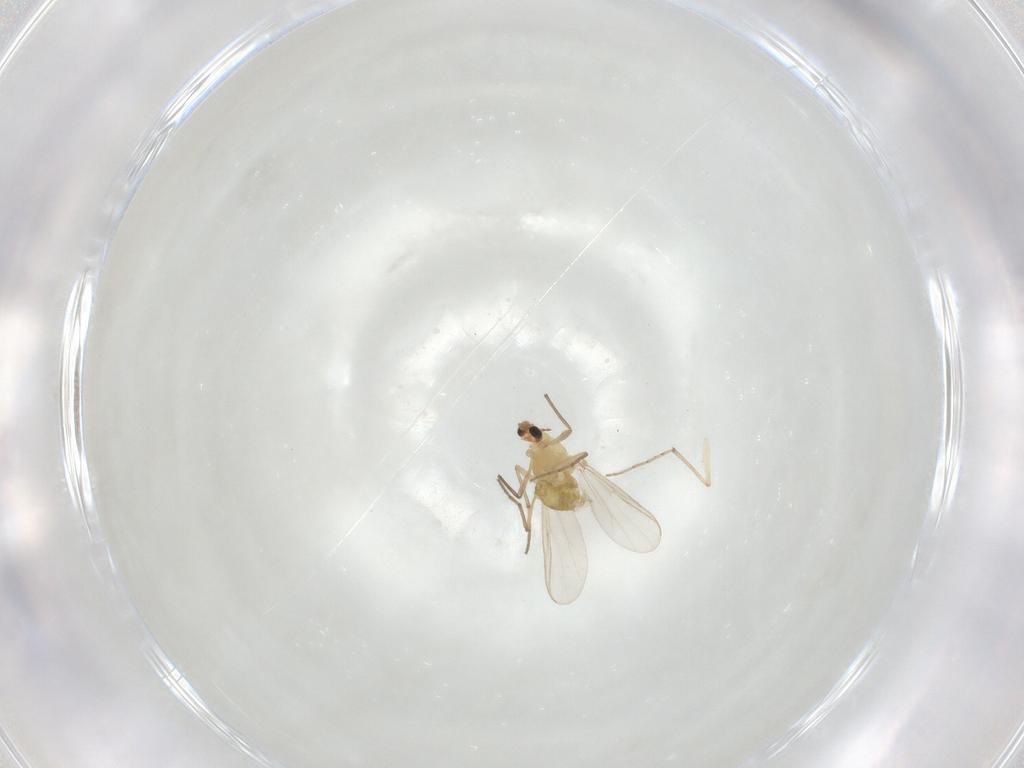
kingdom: Animalia
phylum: Arthropoda
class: Insecta
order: Diptera
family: Chironomidae
